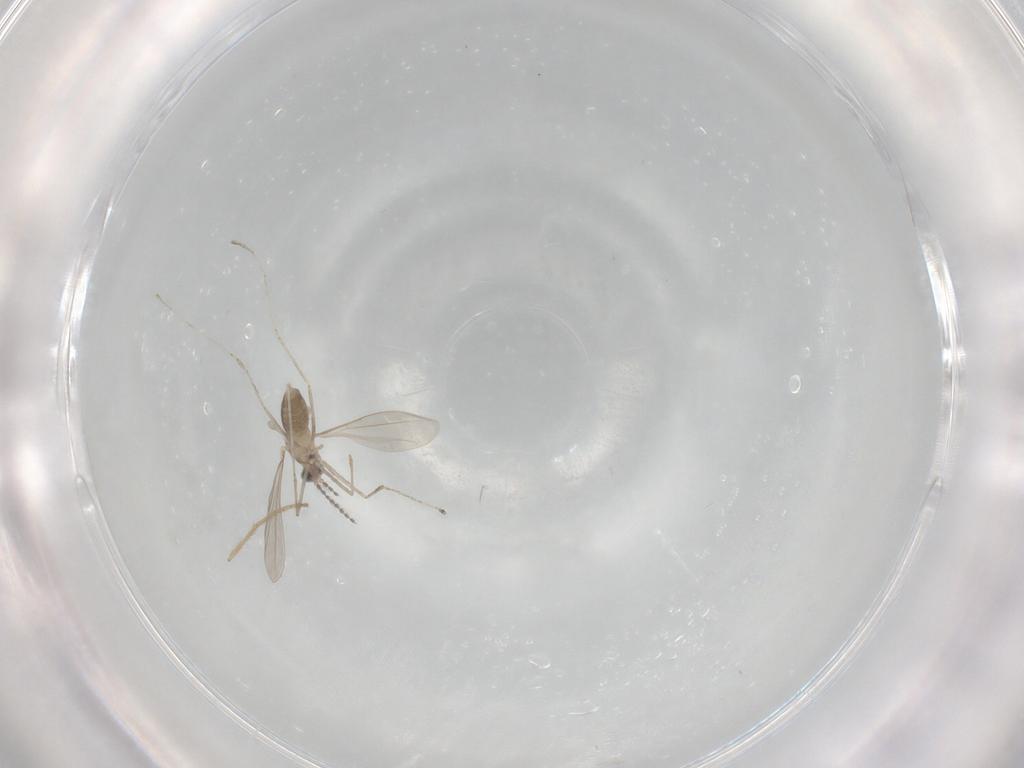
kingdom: Animalia
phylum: Arthropoda
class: Insecta
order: Diptera
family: Chironomidae
